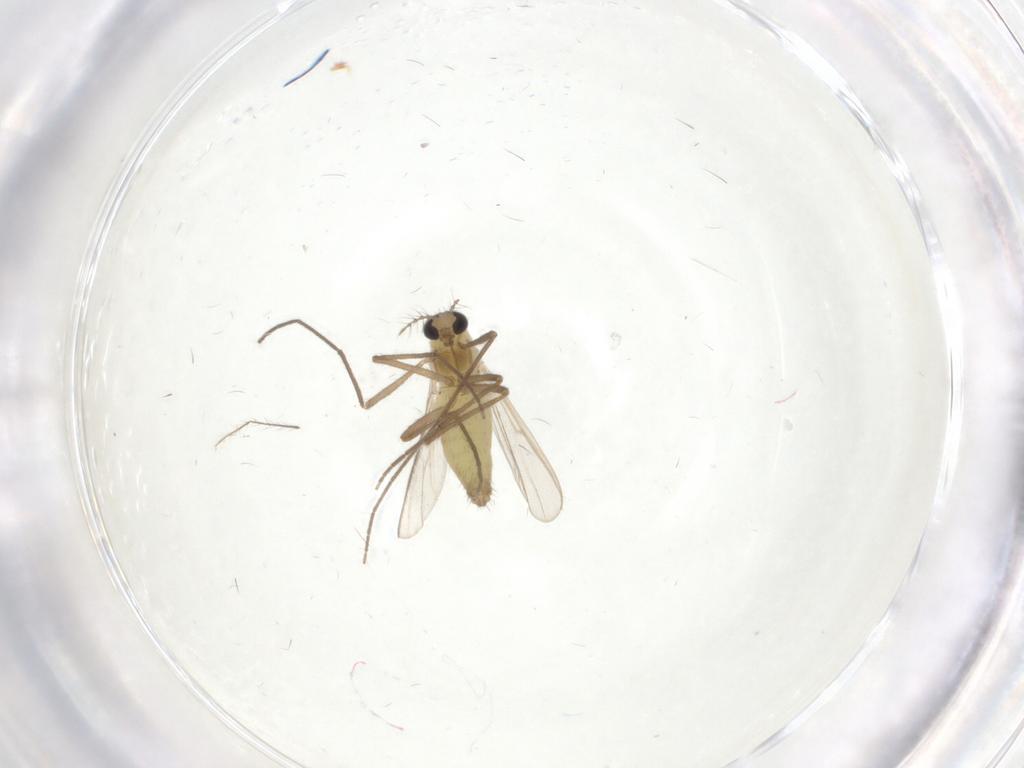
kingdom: Animalia
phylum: Arthropoda
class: Insecta
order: Diptera
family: Chironomidae
